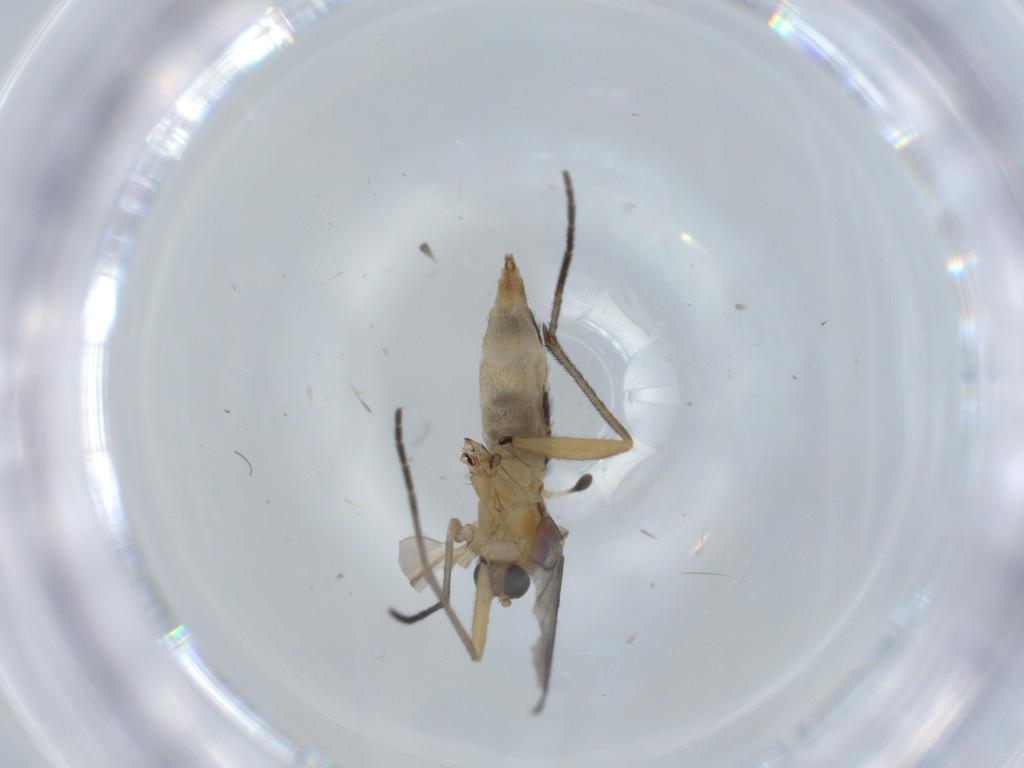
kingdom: Animalia
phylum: Arthropoda
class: Insecta
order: Diptera
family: Sciaridae
